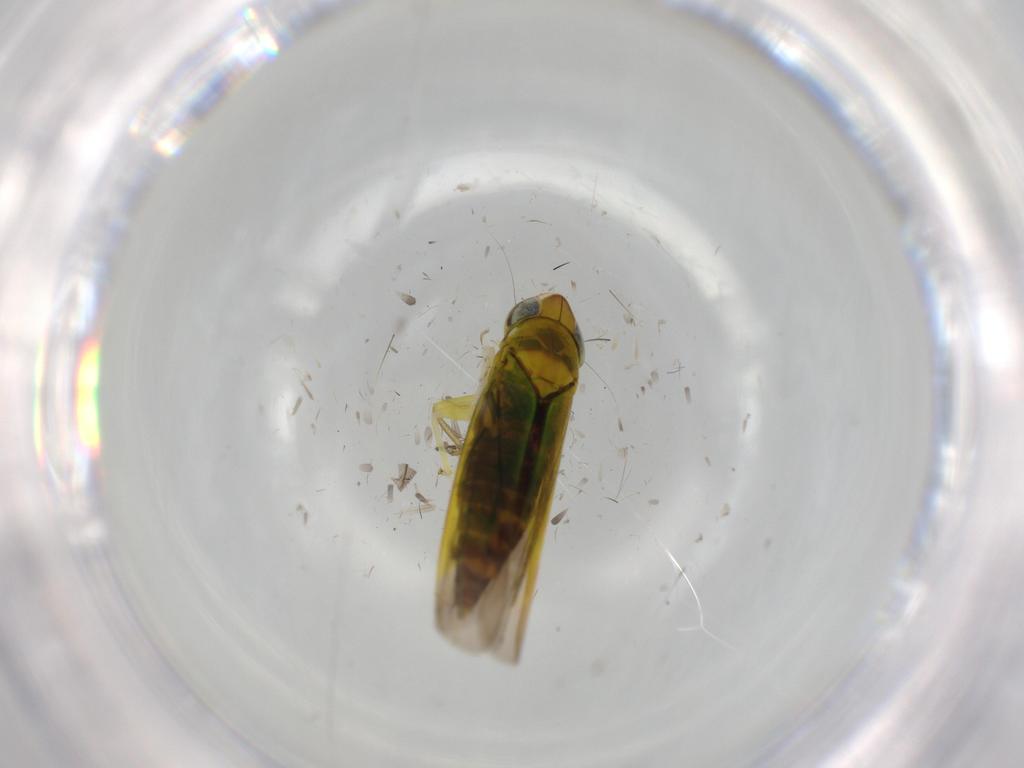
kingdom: Animalia
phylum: Arthropoda
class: Insecta
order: Hemiptera
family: Cicadellidae
